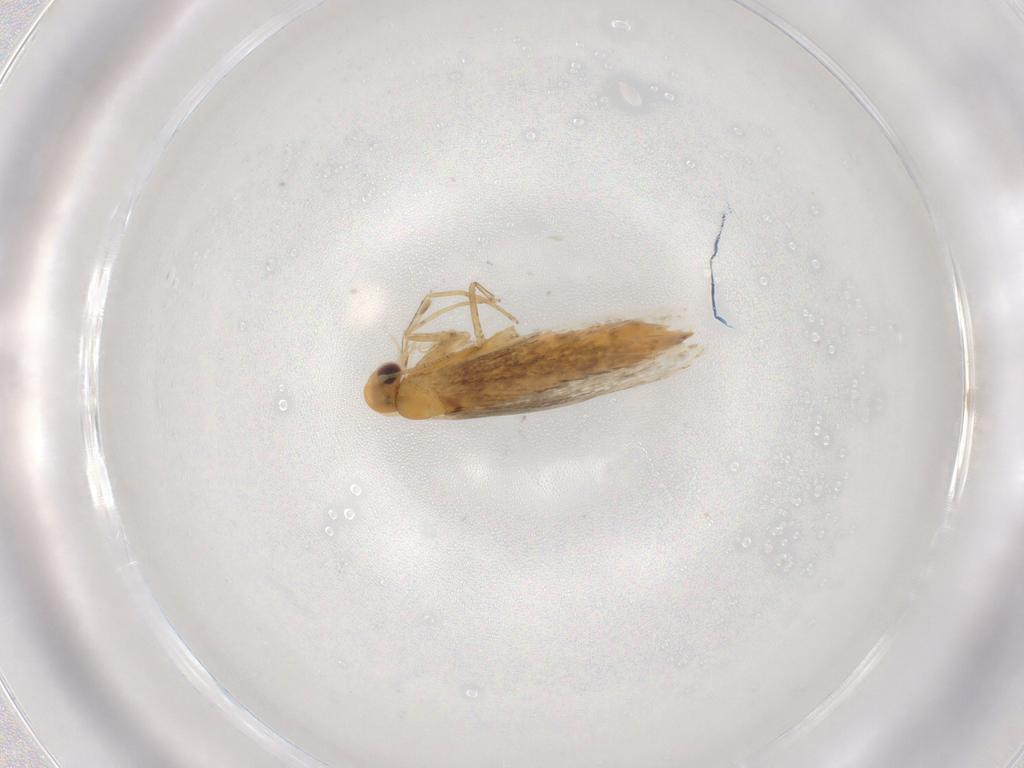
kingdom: Animalia
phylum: Arthropoda
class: Insecta
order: Lepidoptera
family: Gracillariidae
